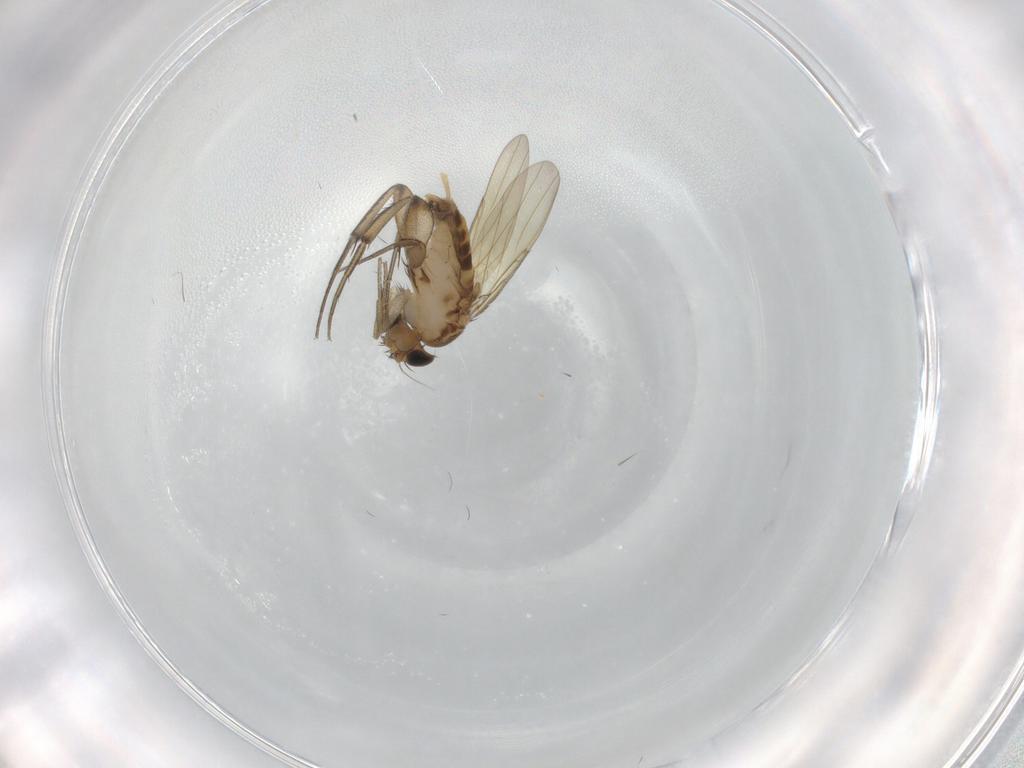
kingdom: Animalia
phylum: Arthropoda
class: Insecta
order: Diptera
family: Phoridae
